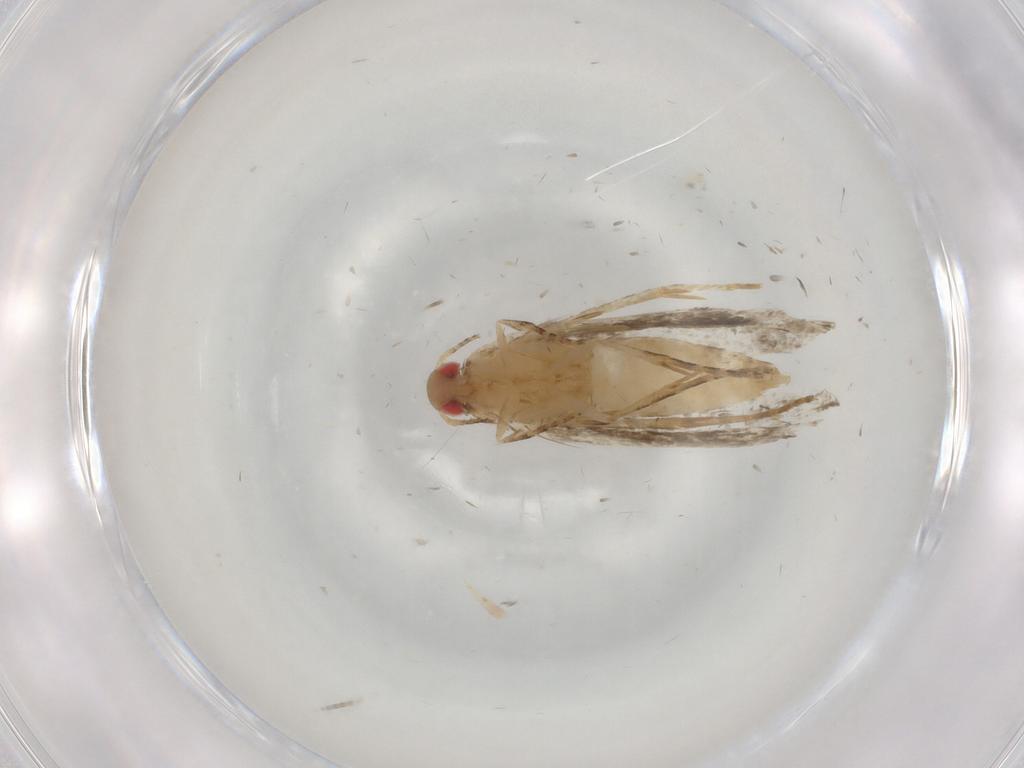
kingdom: Animalia
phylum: Arthropoda
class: Insecta
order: Lepidoptera
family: Gelechiidae
